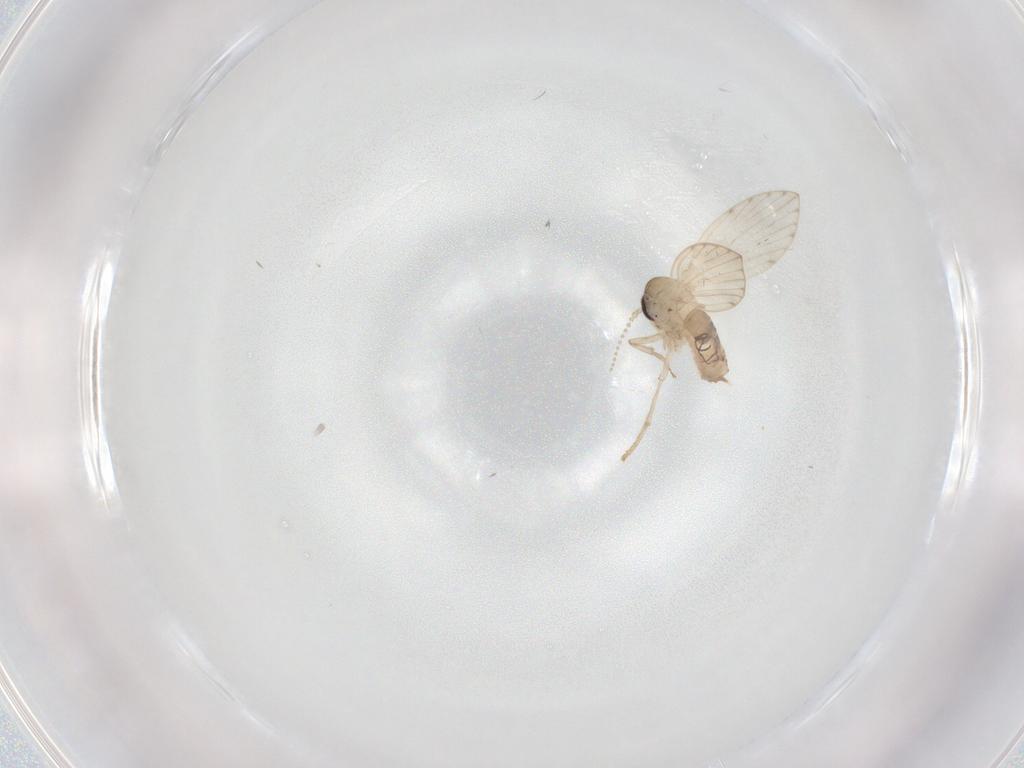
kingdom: Animalia
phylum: Arthropoda
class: Insecta
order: Diptera
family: Psychodidae
